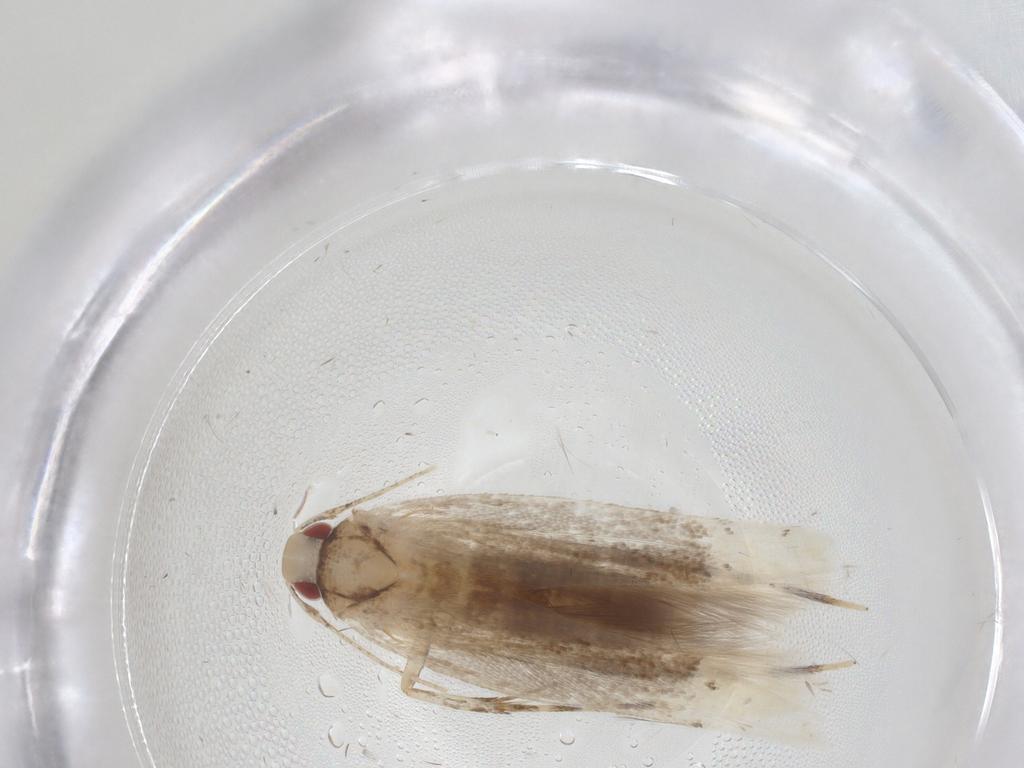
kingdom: Animalia
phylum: Arthropoda
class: Insecta
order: Lepidoptera
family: Cosmopterigidae
